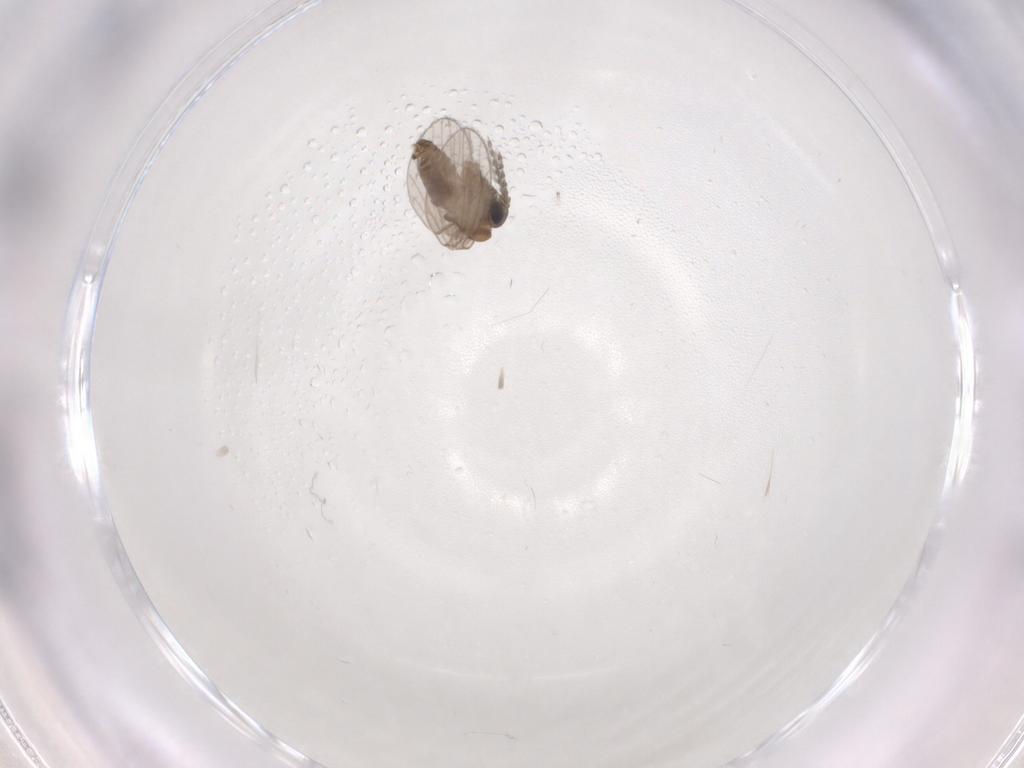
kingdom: Animalia
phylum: Arthropoda
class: Insecta
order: Diptera
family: Psychodidae
